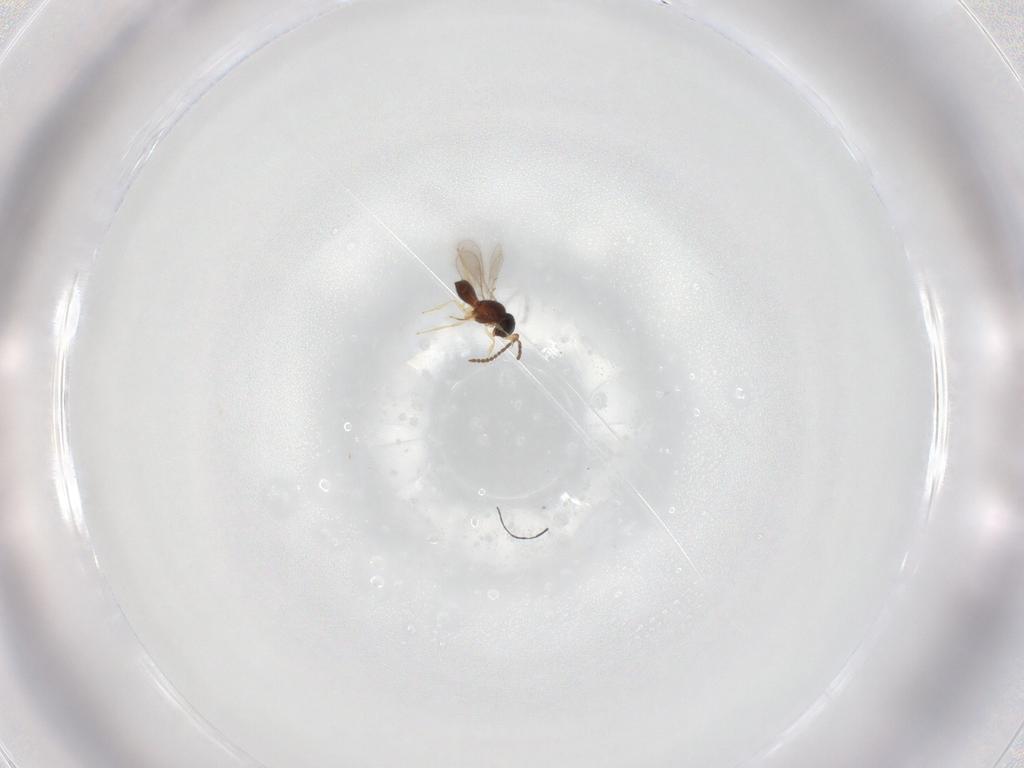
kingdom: Animalia
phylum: Arthropoda
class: Insecta
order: Hymenoptera
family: Scelionidae
